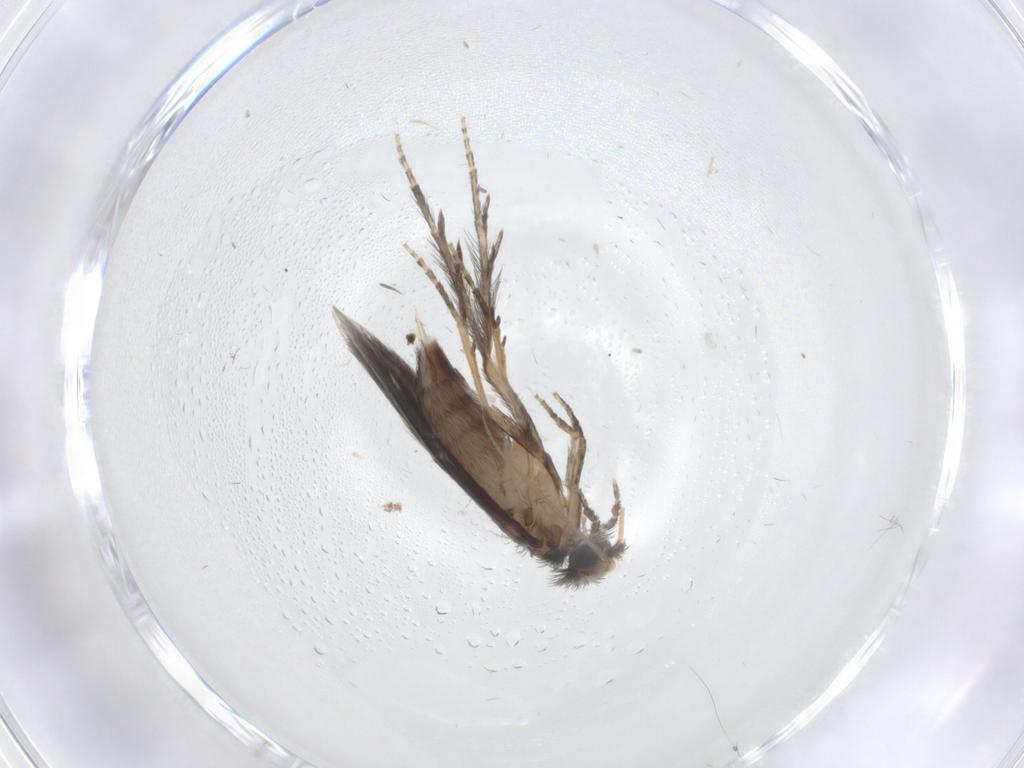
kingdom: Animalia
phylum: Arthropoda
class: Insecta
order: Trichoptera
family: Hydroptilidae
